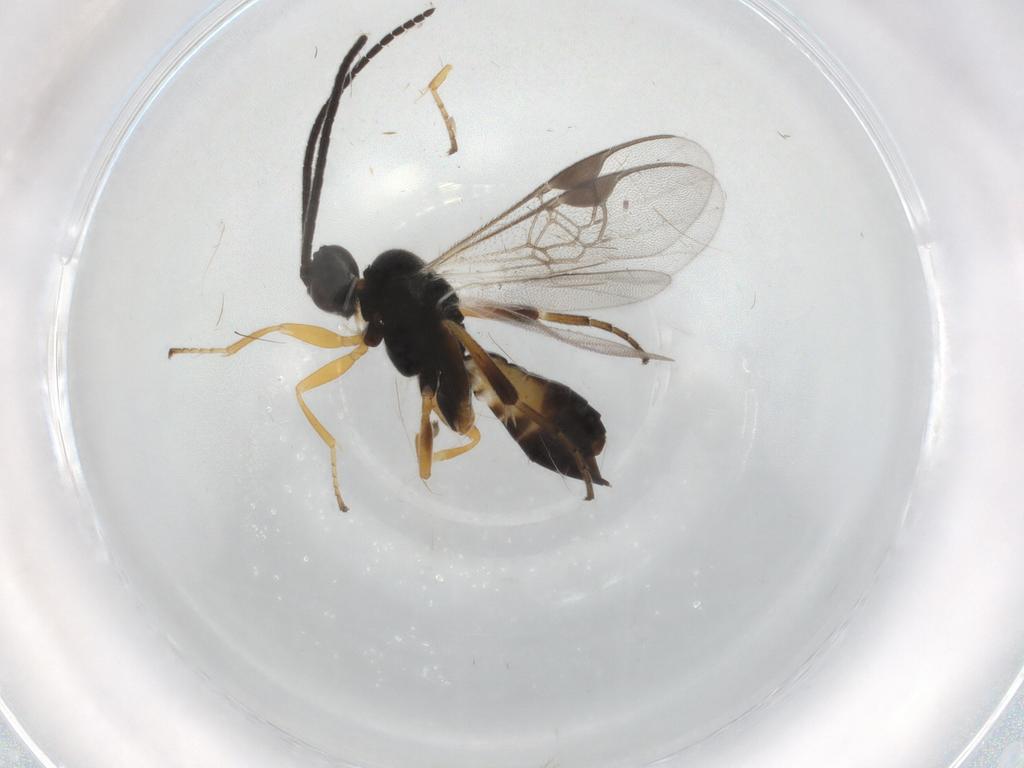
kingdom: Animalia
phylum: Arthropoda
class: Insecta
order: Hymenoptera
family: Braconidae
